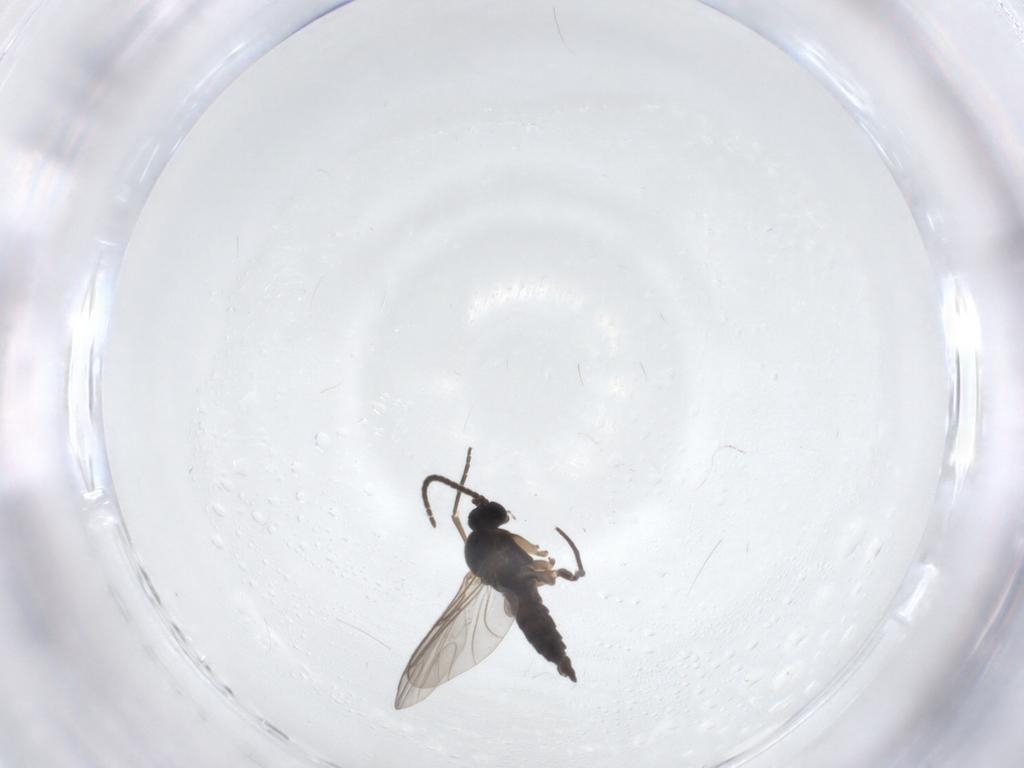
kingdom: Animalia
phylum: Arthropoda
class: Insecta
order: Diptera
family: Sciaridae
